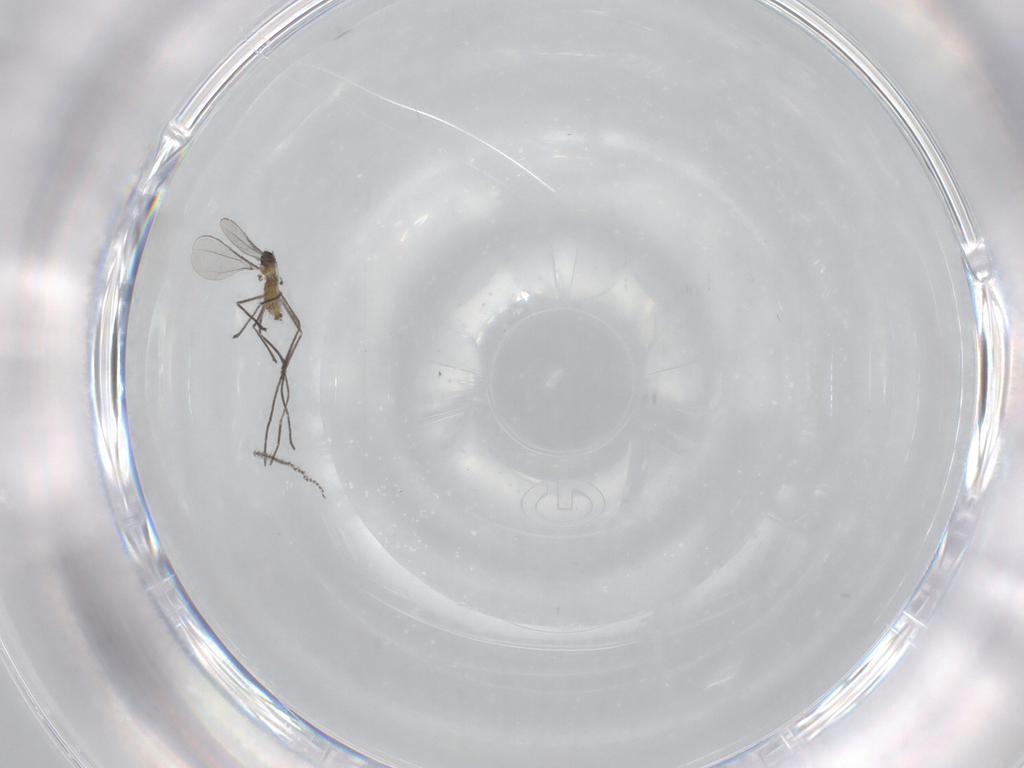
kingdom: Animalia
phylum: Arthropoda
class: Insecta
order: Diptera
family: Cecidomyiidae
